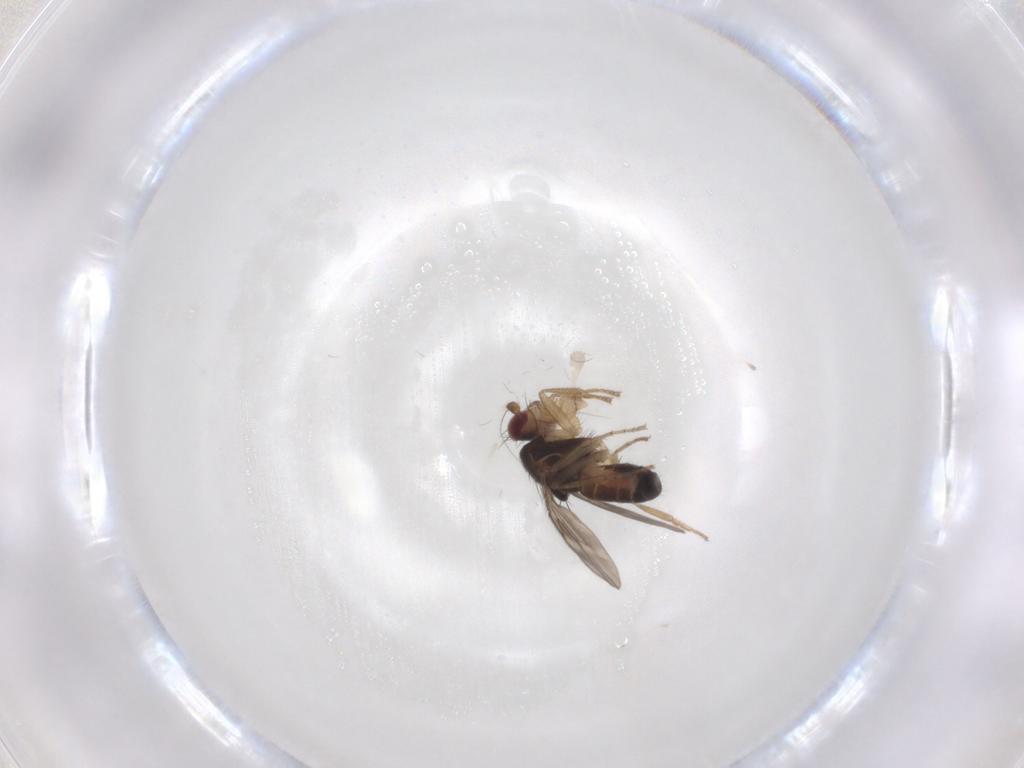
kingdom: Animalia
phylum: Arthropoda
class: Insecta
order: Diptera
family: Sphaeroceridae
